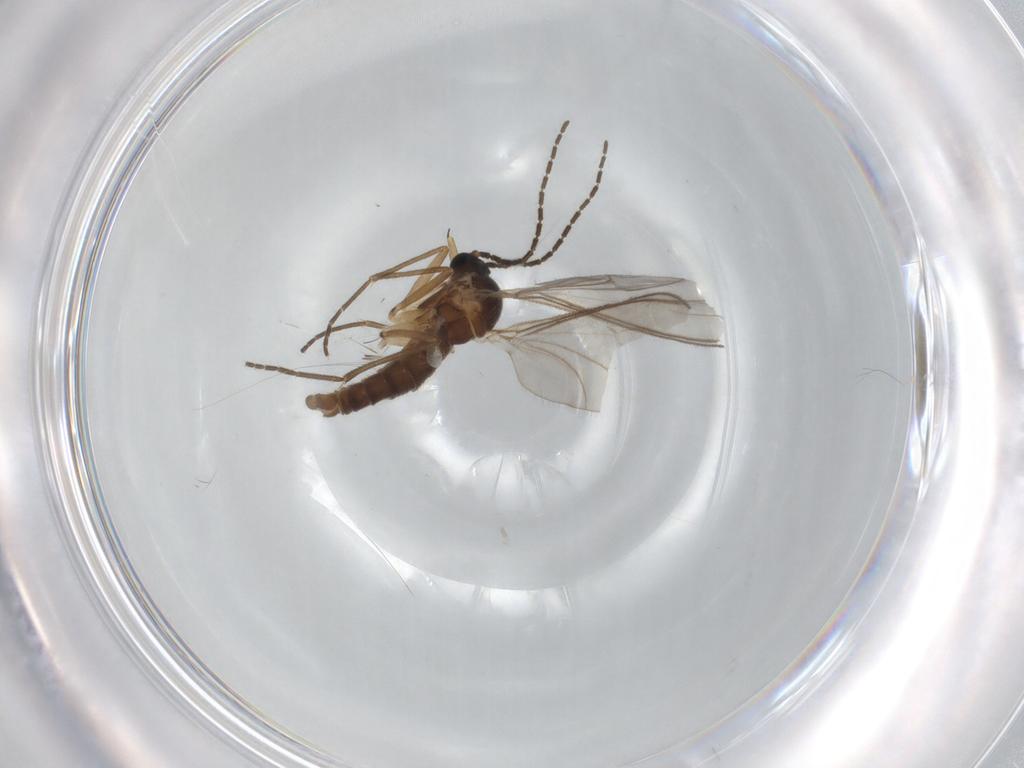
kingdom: Animalia
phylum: Arthropoda
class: Insecta
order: Diptera
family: Sciaridae
